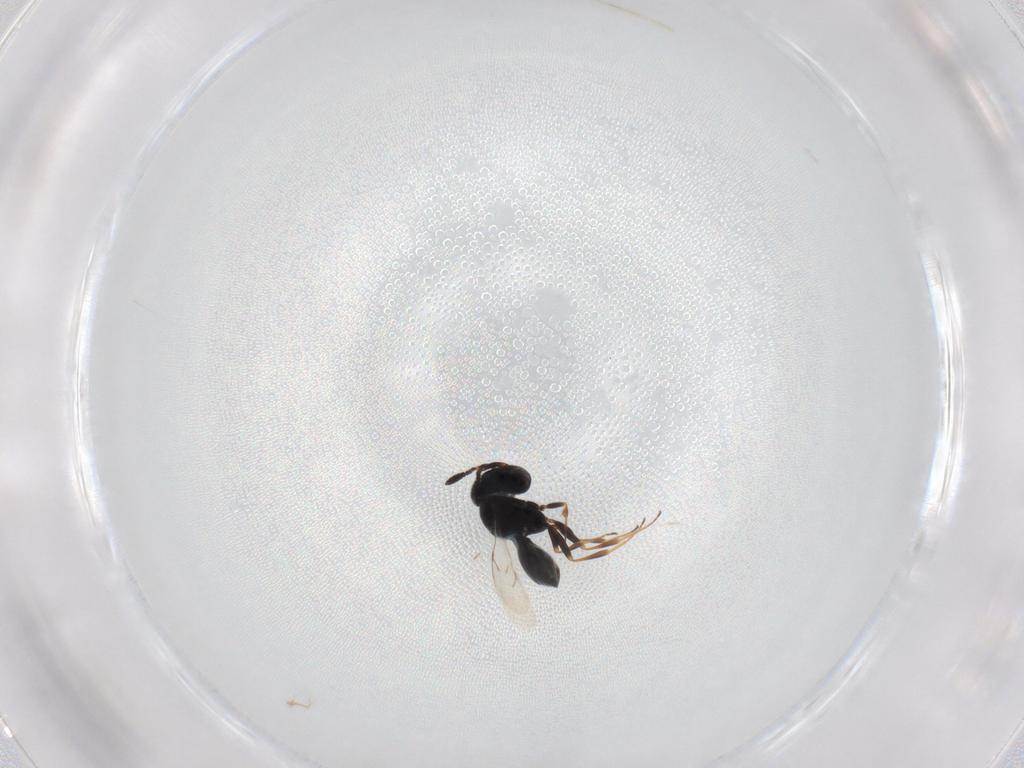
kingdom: Animalia
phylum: Arthropoda
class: Insecta
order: Hymenoptera
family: Scelionidae
